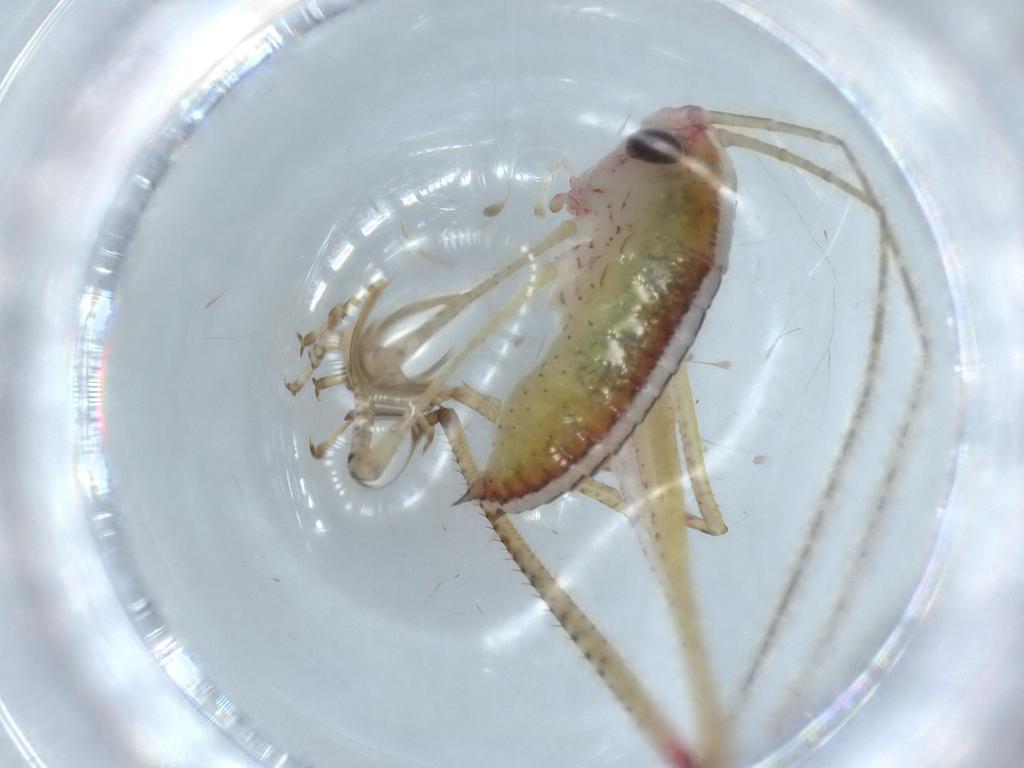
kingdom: Animalia
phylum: Arthropoda
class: Insecta
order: Orthoptera
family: Tettigoniidae
